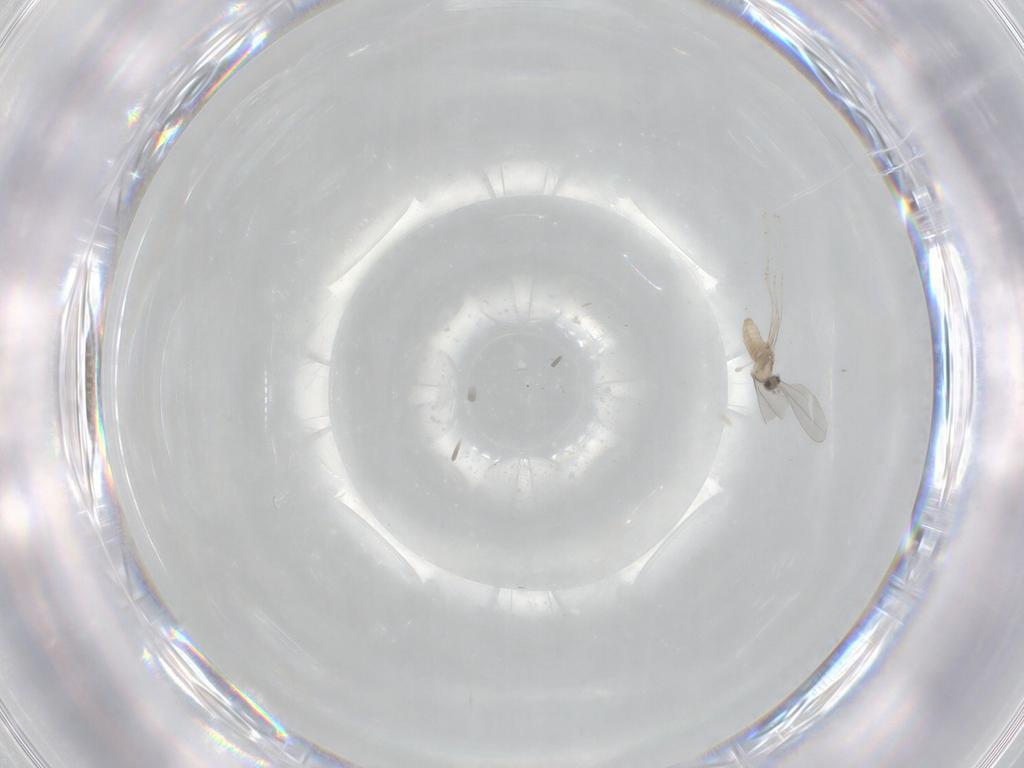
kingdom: Animalia
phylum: Arthropoda
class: Insecta
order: Diptera
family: Cecidomyiidae
